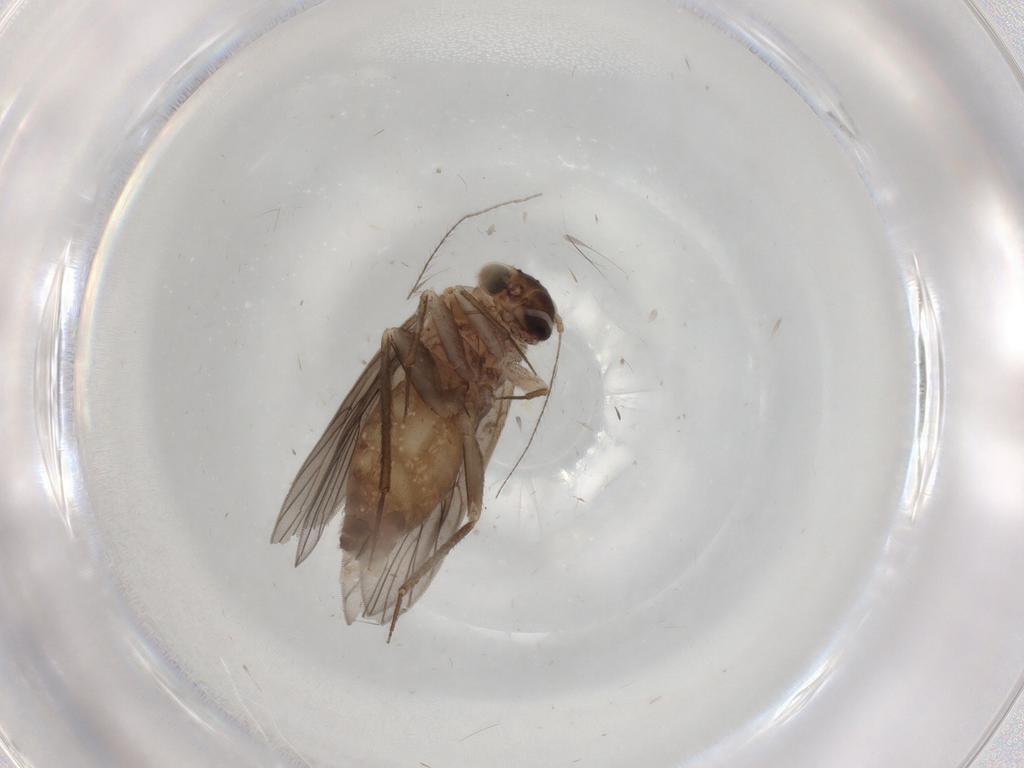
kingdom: Animalia
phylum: Arthropoda
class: Insecta
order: Psocodea
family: Lepidopsocidae
